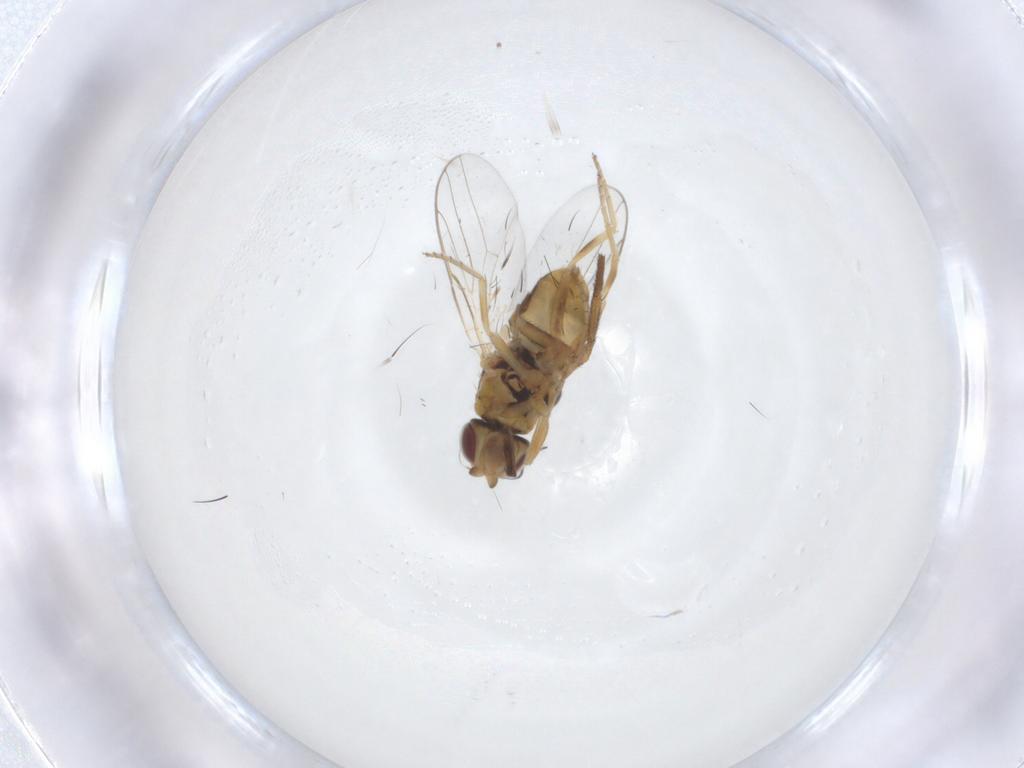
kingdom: Animalia
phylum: Arthropoda
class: Insecta
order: Diptera
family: Chloropidae
